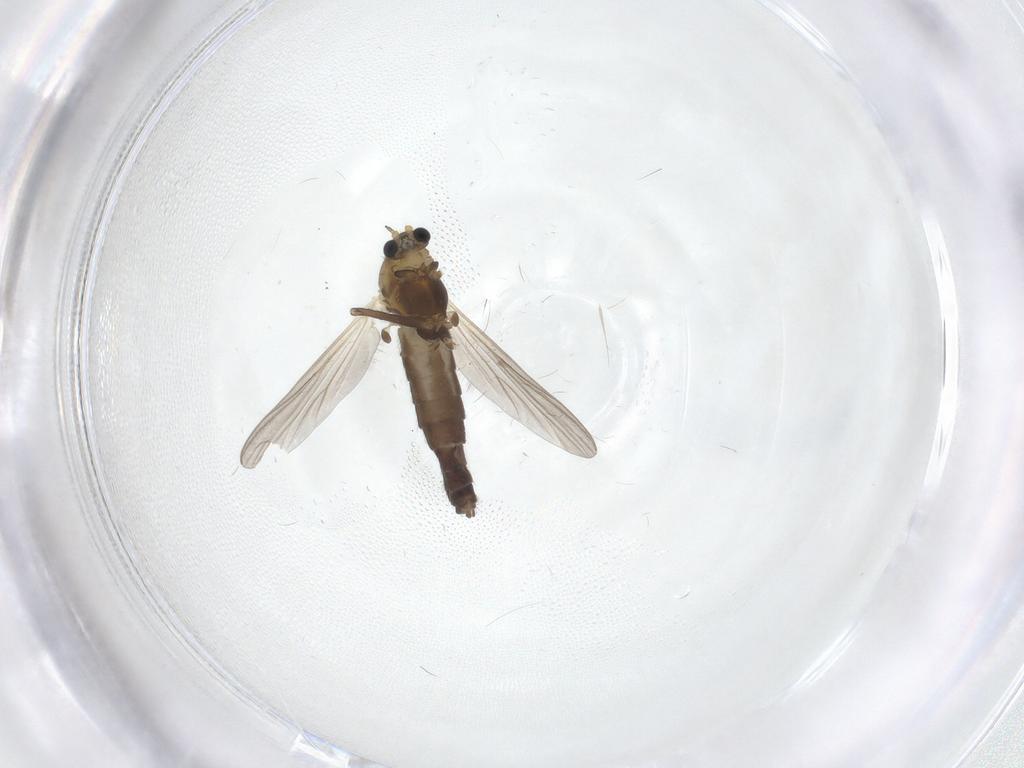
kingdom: Animalia
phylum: Arthropoda
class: Insecta
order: Diptera
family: Chironomidae
